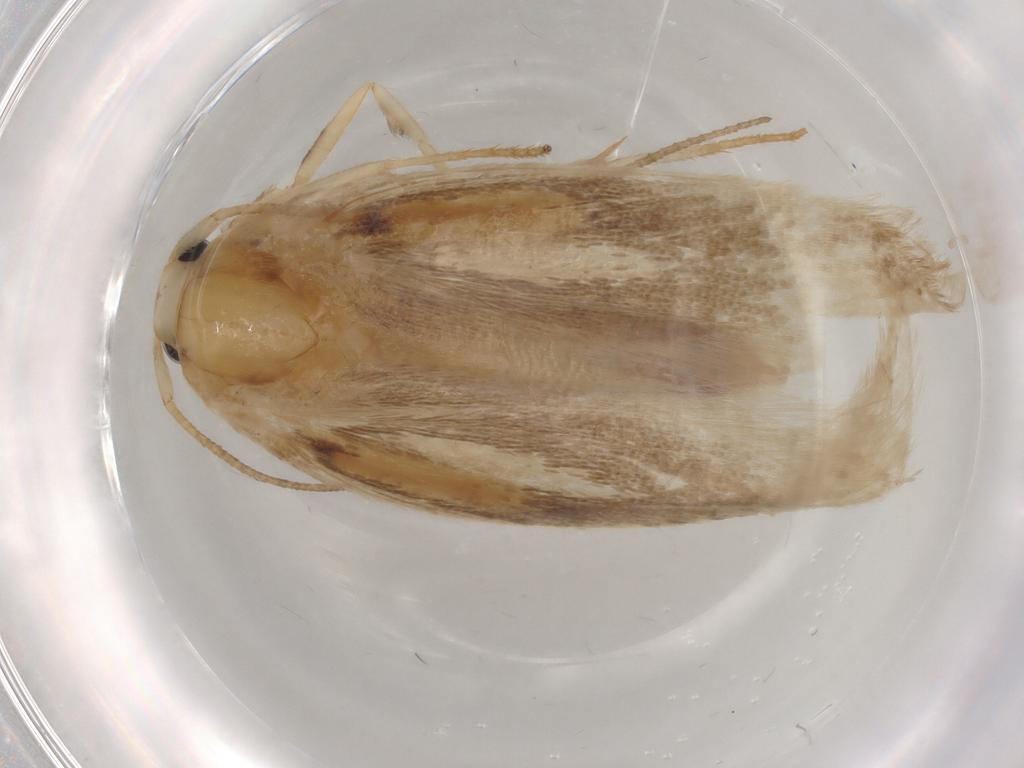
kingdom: Animalia
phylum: Arthropoda
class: Insecta
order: Lepidoptera
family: Geometridae
